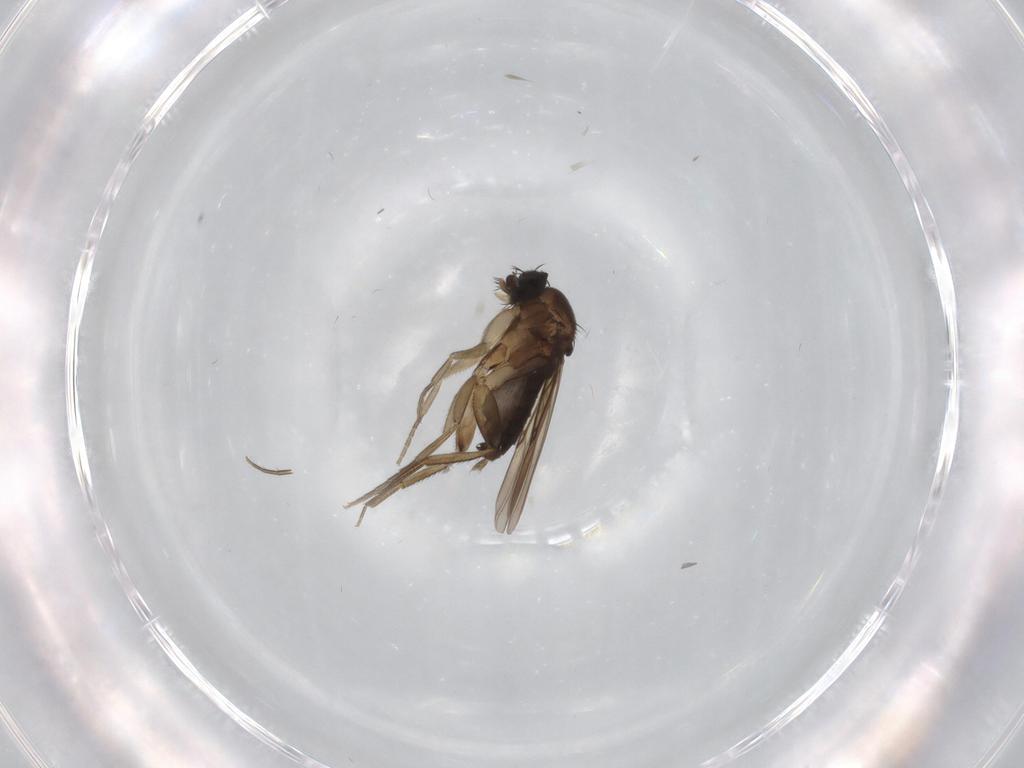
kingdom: Animalia
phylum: Arthropoda
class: Insecta
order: Diptera
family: Phoridae
